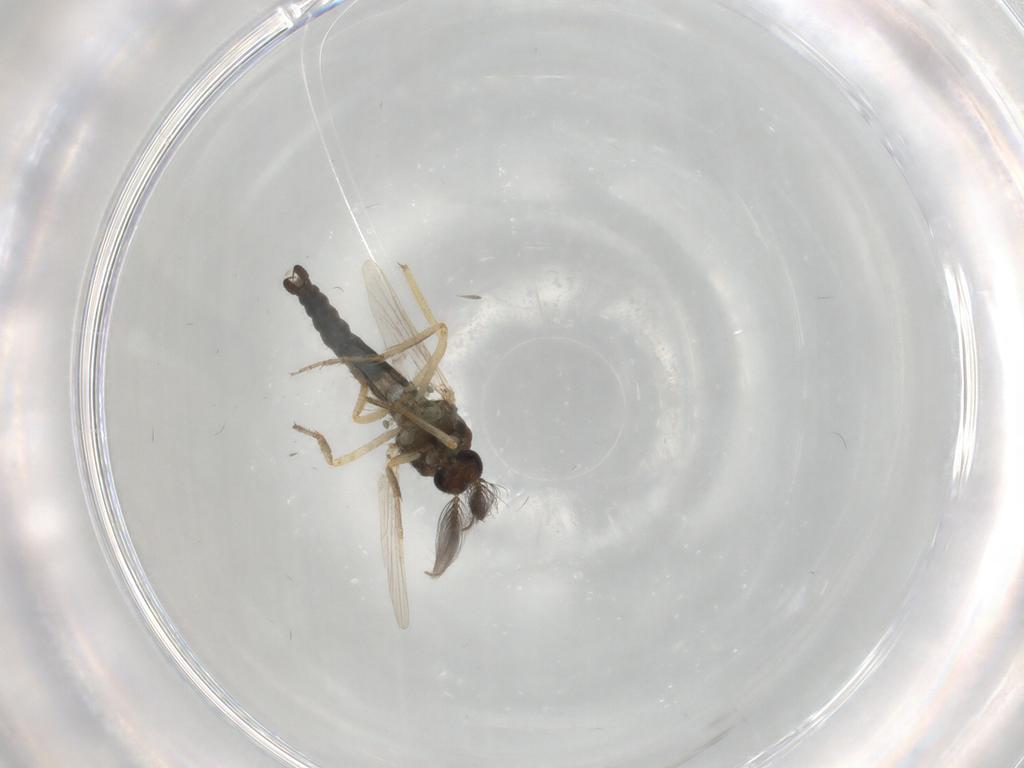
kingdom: Animalia
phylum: Arthropoda
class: Insecta
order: Diptera
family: Ceratopogonidae
